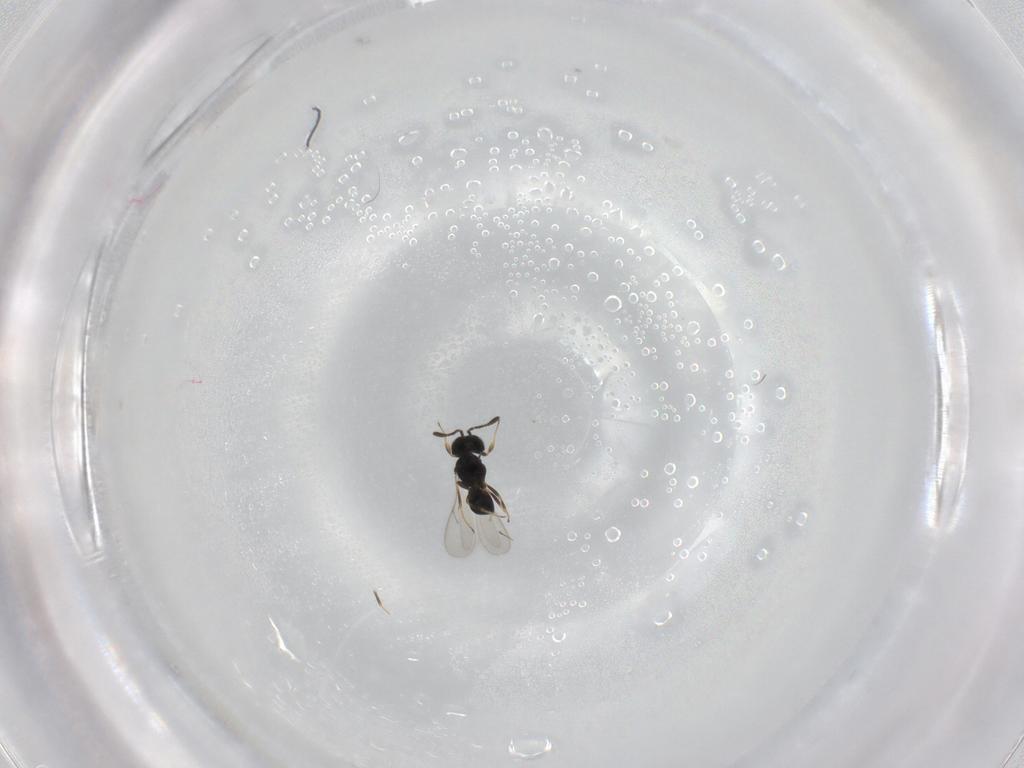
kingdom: Animalia
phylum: Arthropoda
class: Insecta
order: Hymenoptera
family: Scelionidae
